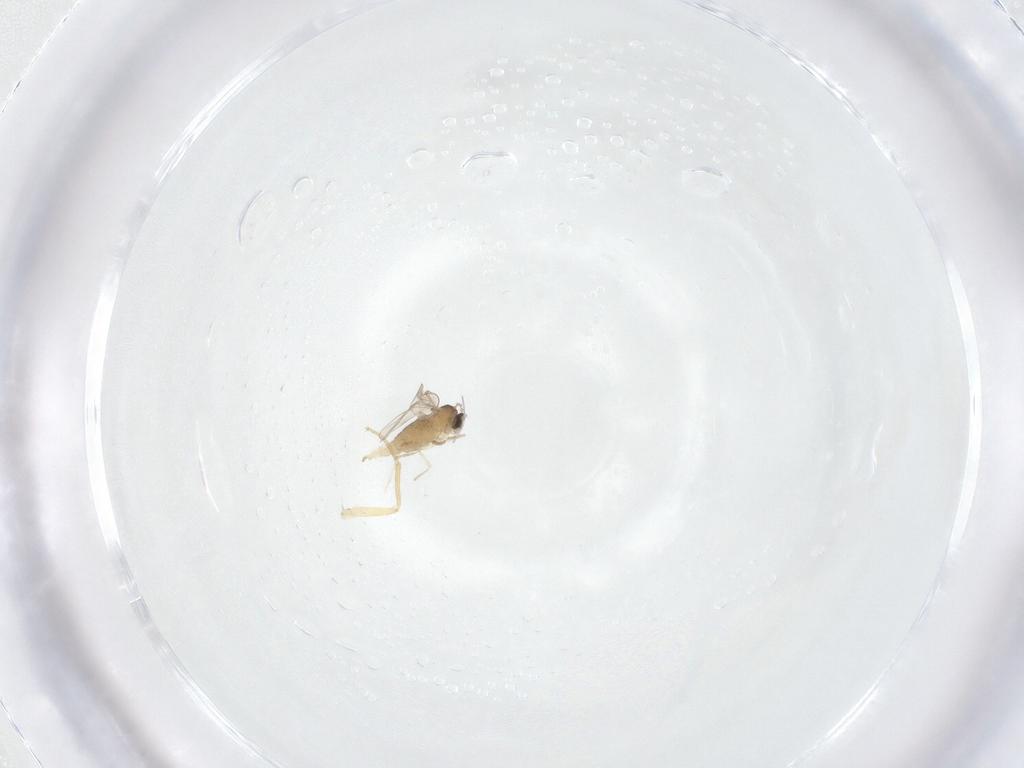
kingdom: Animalia
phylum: Arthropoda
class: Insecta
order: Diptera
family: Cecidomyiidae
